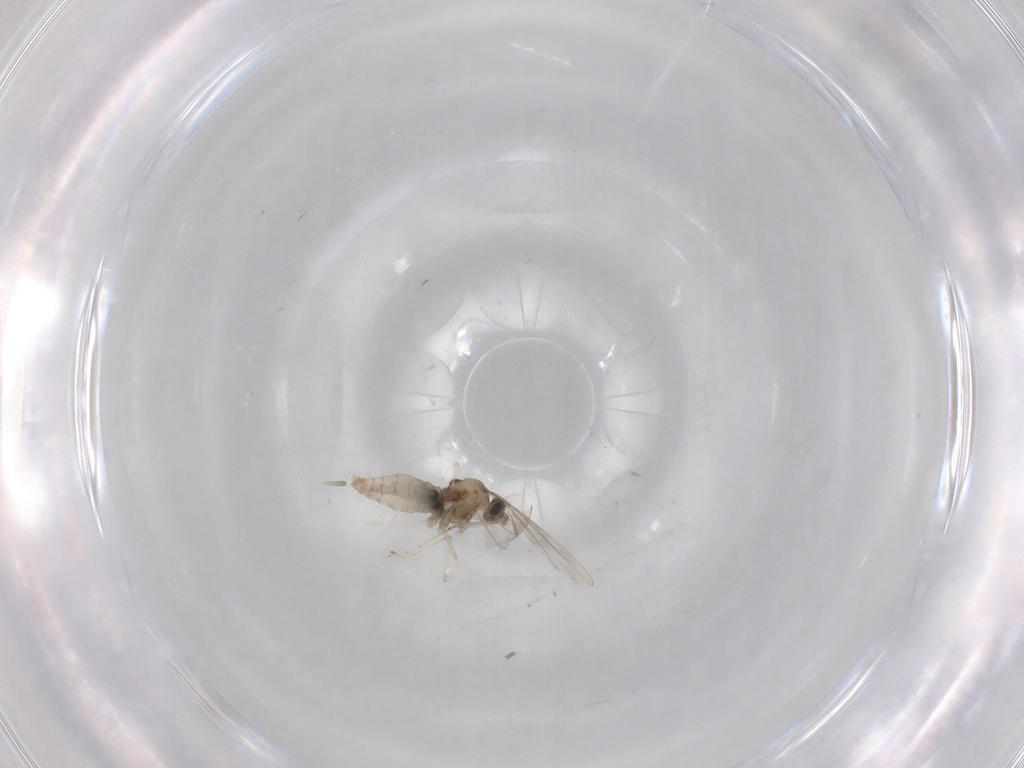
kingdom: Animalia
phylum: Arthropoda
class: Insecta
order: Diptera
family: Cecidomyiidae
